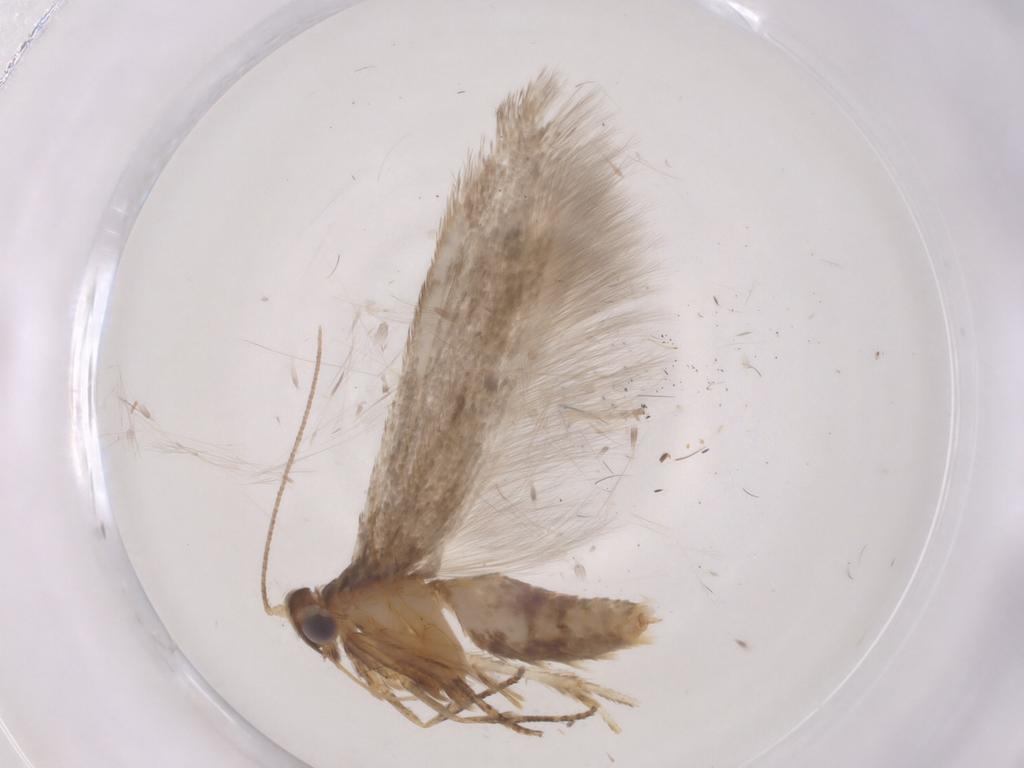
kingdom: Animalia
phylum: Arthropoda
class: Insecta
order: Lepidoptera
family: Coleophoridae
